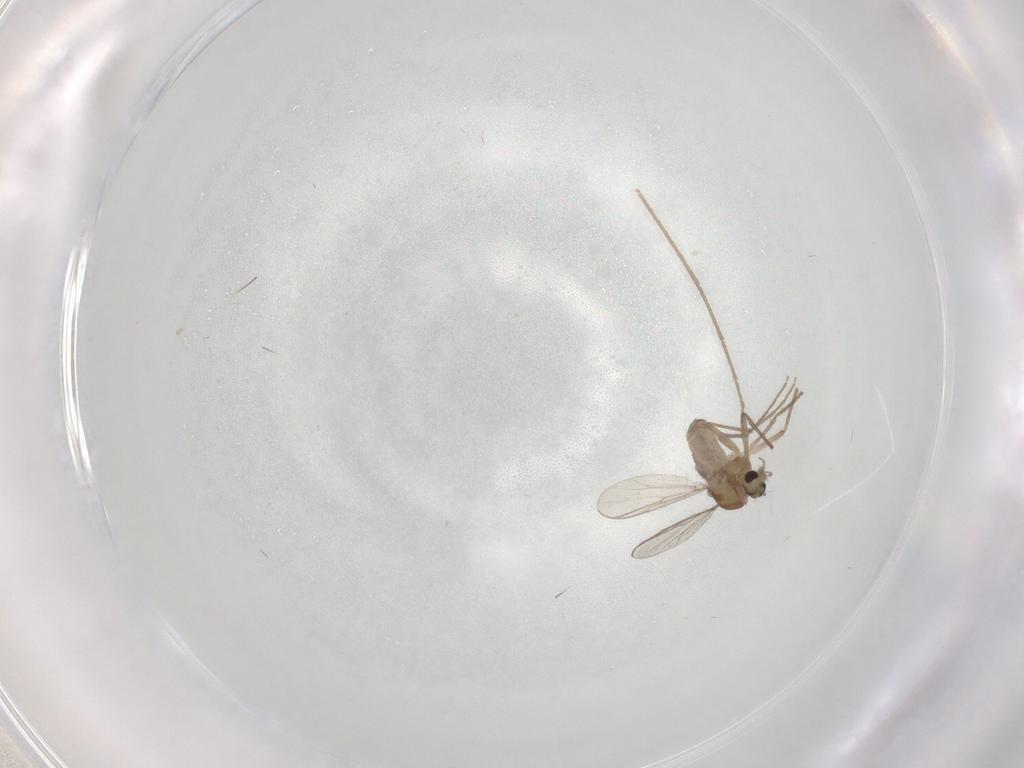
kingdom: Animalia
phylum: Arthropoda
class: Insecta
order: Diptera
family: Chironomidae
